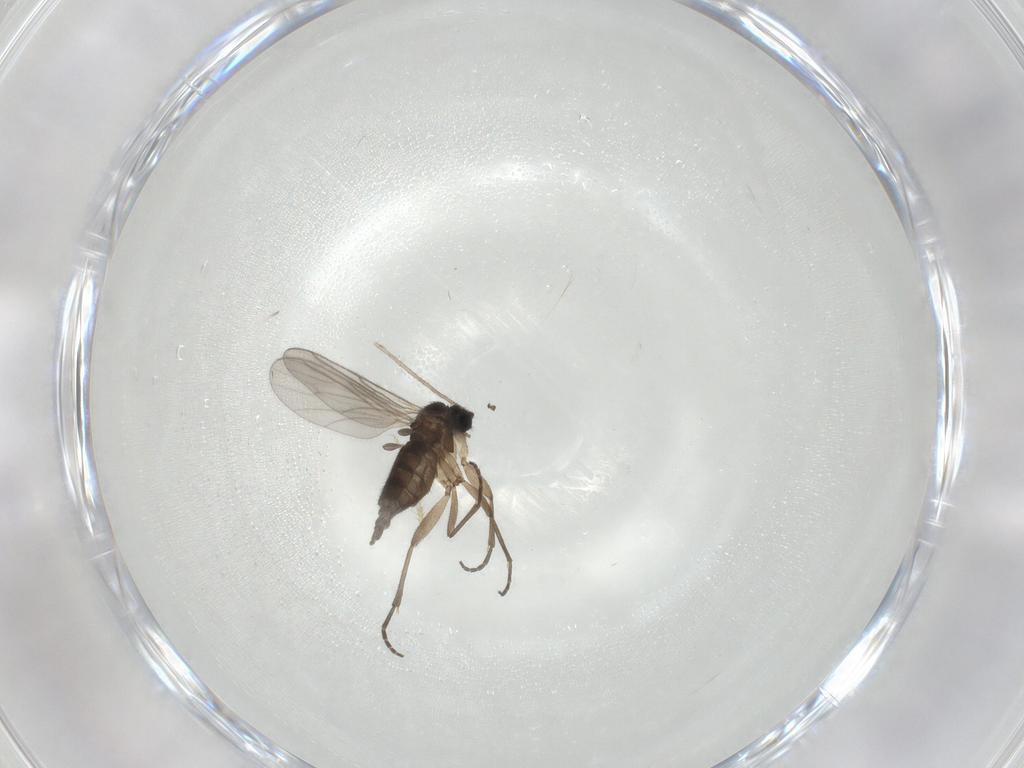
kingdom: Animalia
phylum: Arthropoda
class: Insecta
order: Diptera
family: Cecidomyiidae
